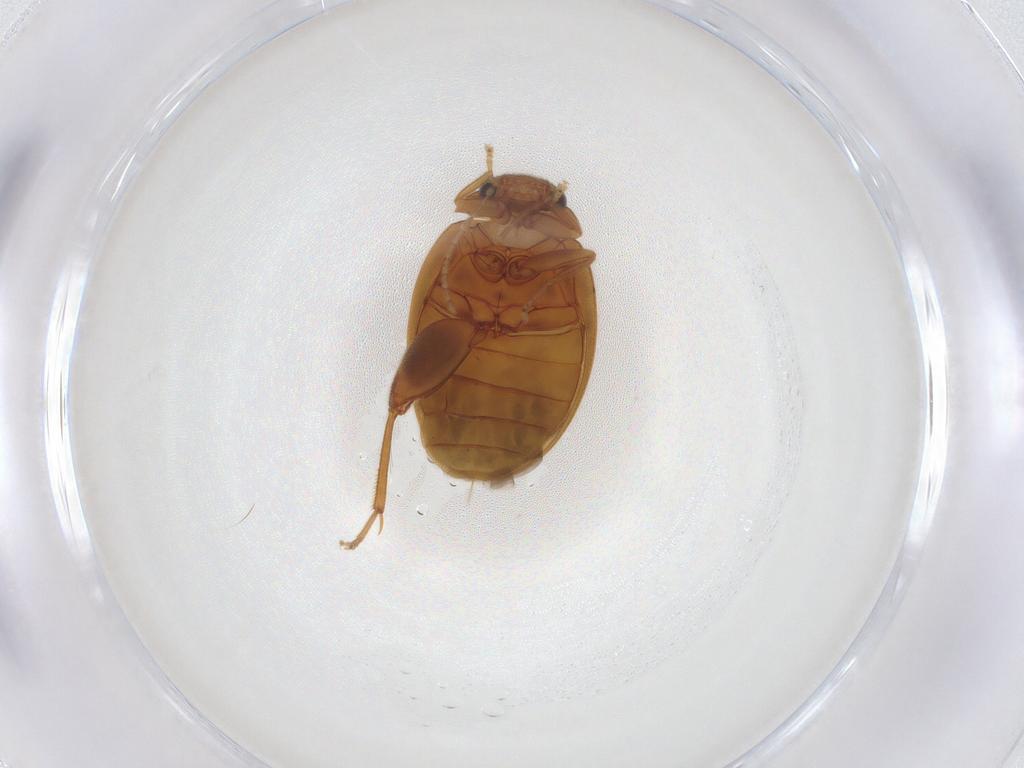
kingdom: Animalia
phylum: Arthropoda
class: Insecta
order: Coleoptera
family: Scirtidae
